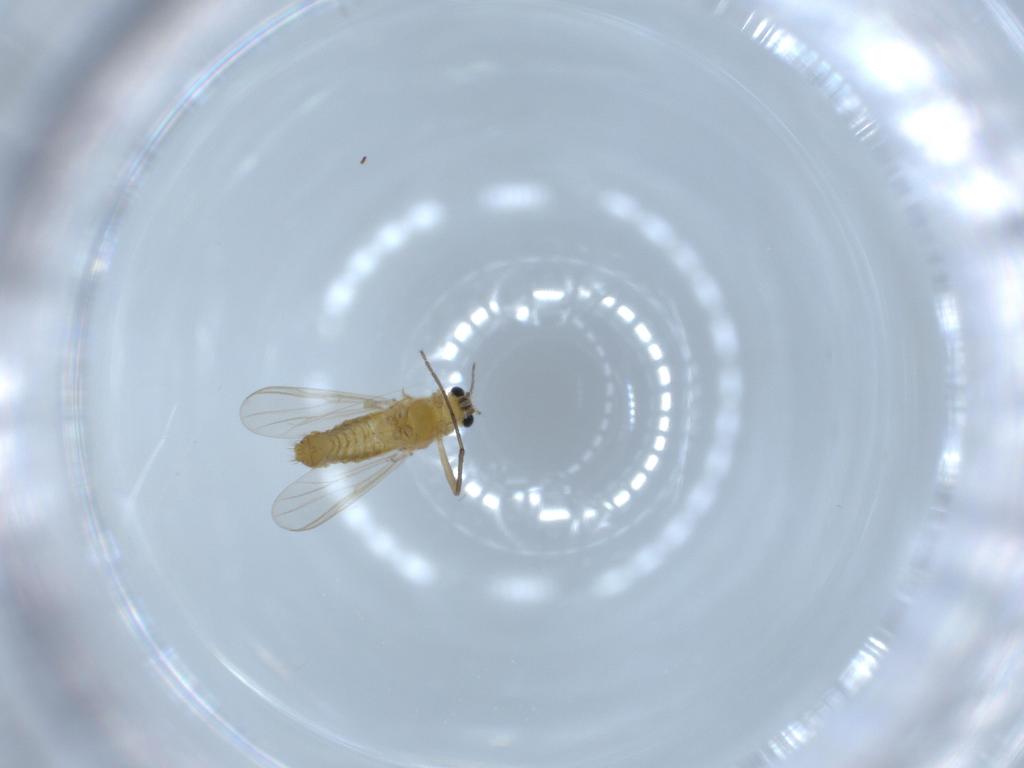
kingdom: Animalia
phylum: Arthropoda
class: Insecta
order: Diptera
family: Chironomidae
